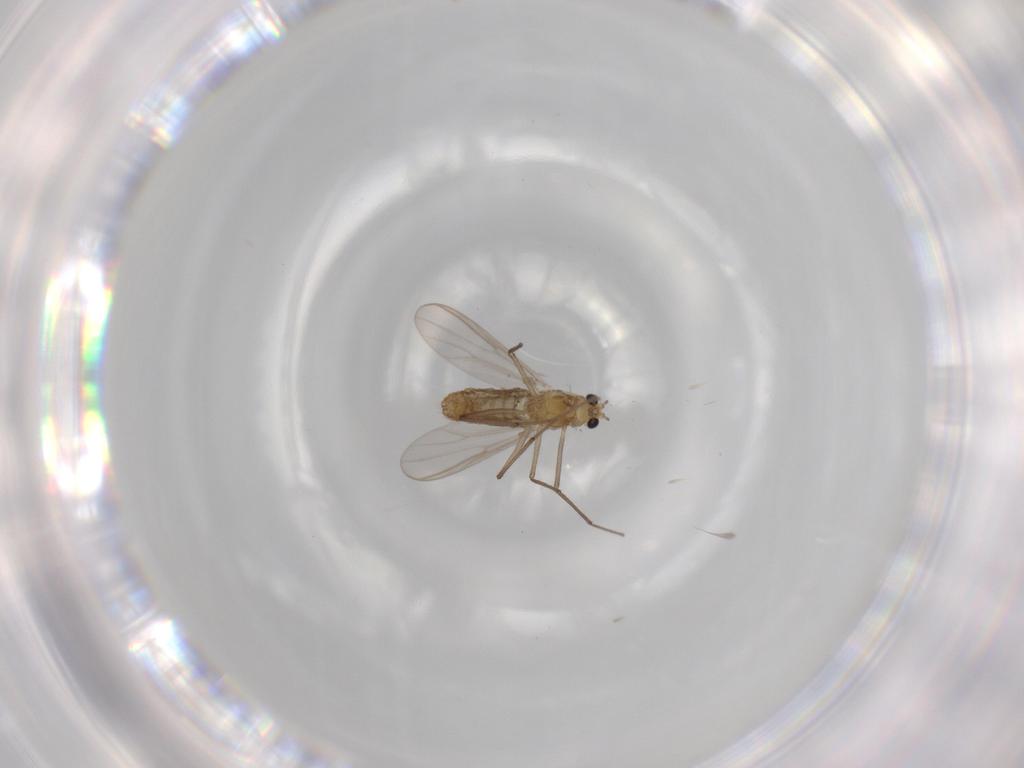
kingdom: Animalia
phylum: Arthropoda
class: Insecta
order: Diptera
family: Chironomidae
